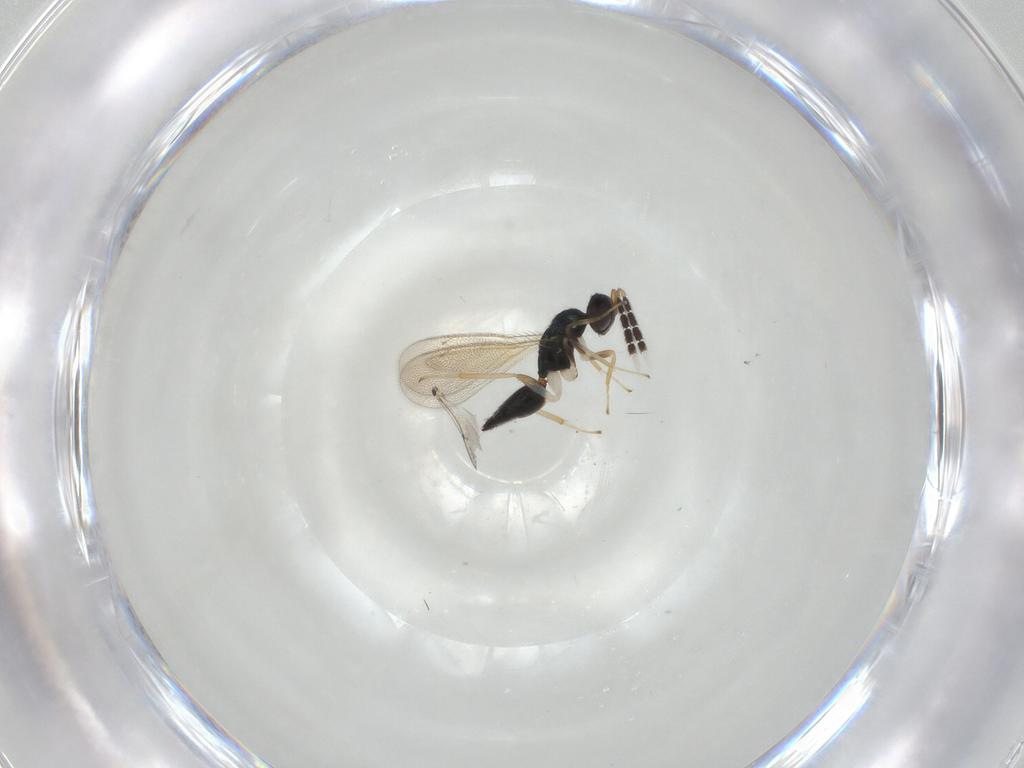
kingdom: Animalia
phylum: Arthropoda
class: Insecta
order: Hymenoptera
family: Eulophidae
